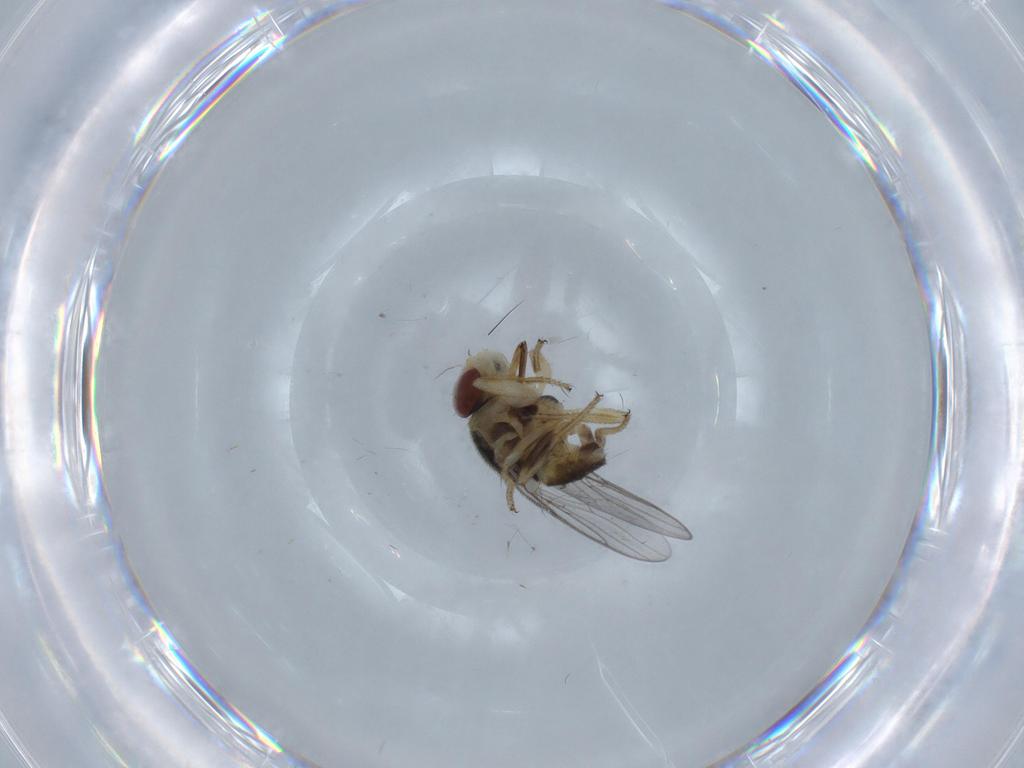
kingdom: Animalia
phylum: Arthropoda
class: Insecta
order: Diptera
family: Chloropidae
